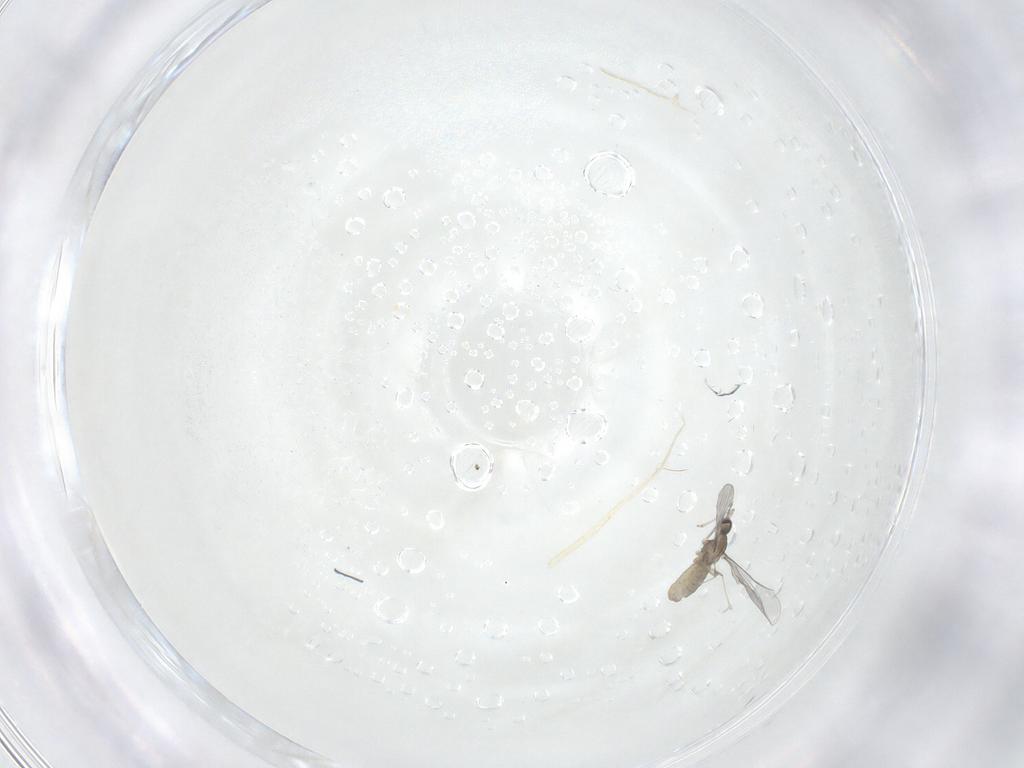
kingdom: Animalia
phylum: Arthropoda
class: Insecta
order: Diptera
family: Cecidomyiidae
